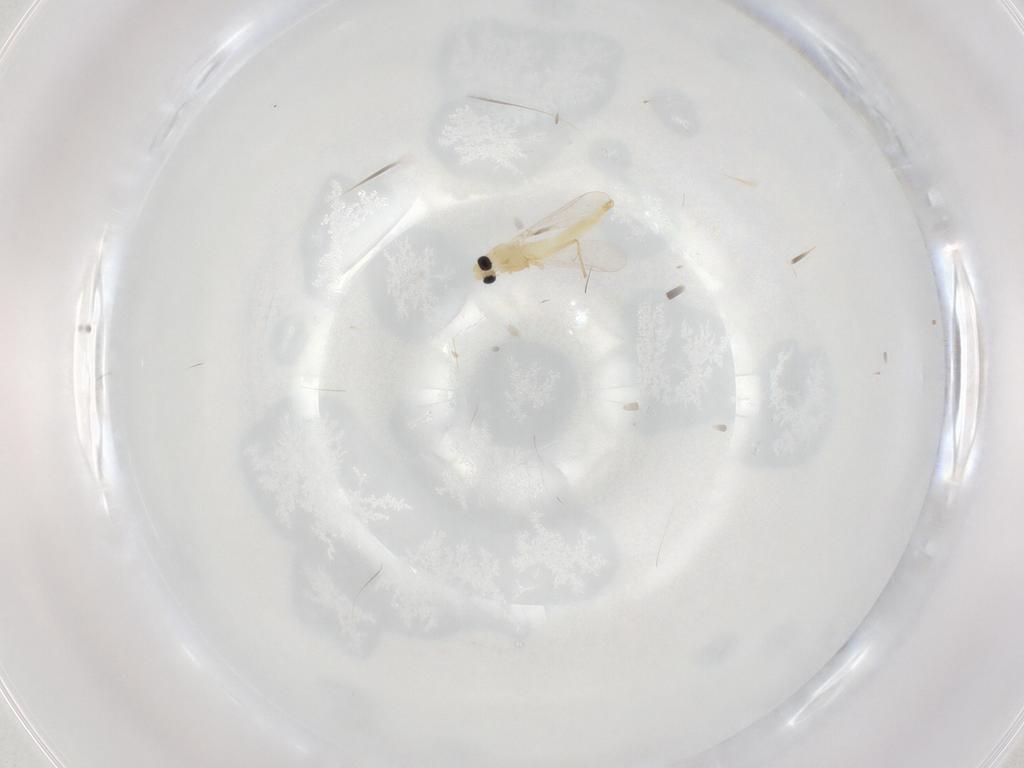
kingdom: Animalia
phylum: Arthropoda
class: Insecta
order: Diptera
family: Chironomidae
